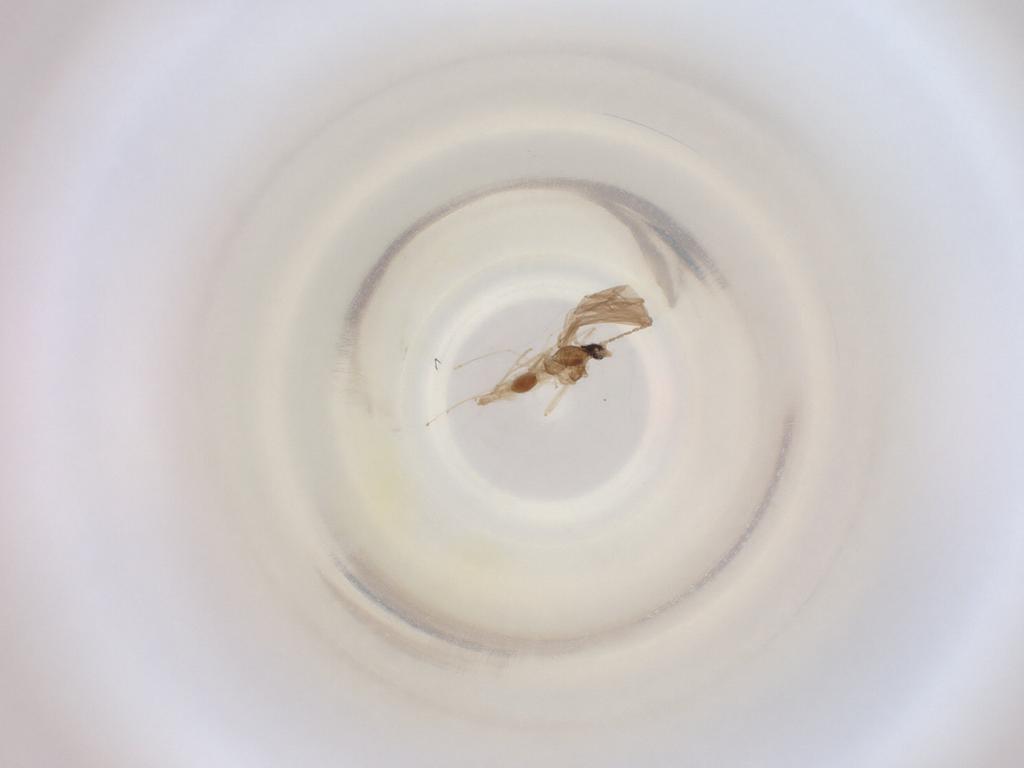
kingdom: Animalia
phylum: Arthropoda
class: Insecta
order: Diptera
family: Cecidomyiidae
